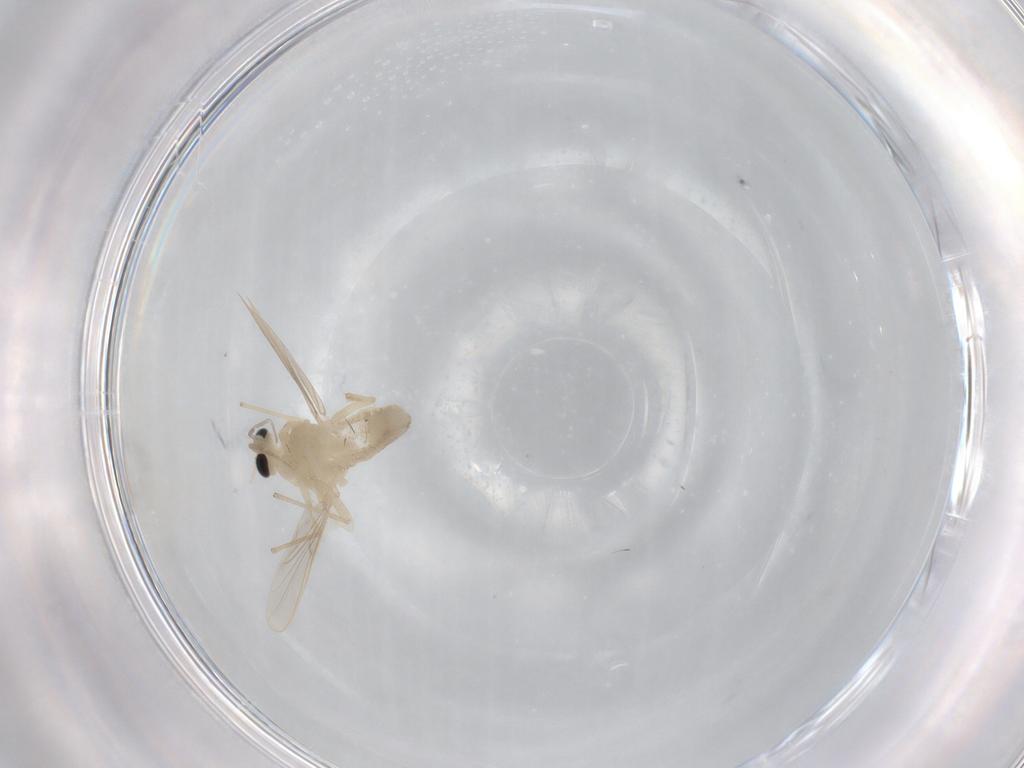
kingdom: Animalia
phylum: Arthropoda
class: Insecta
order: Diptera
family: Chironomidae
